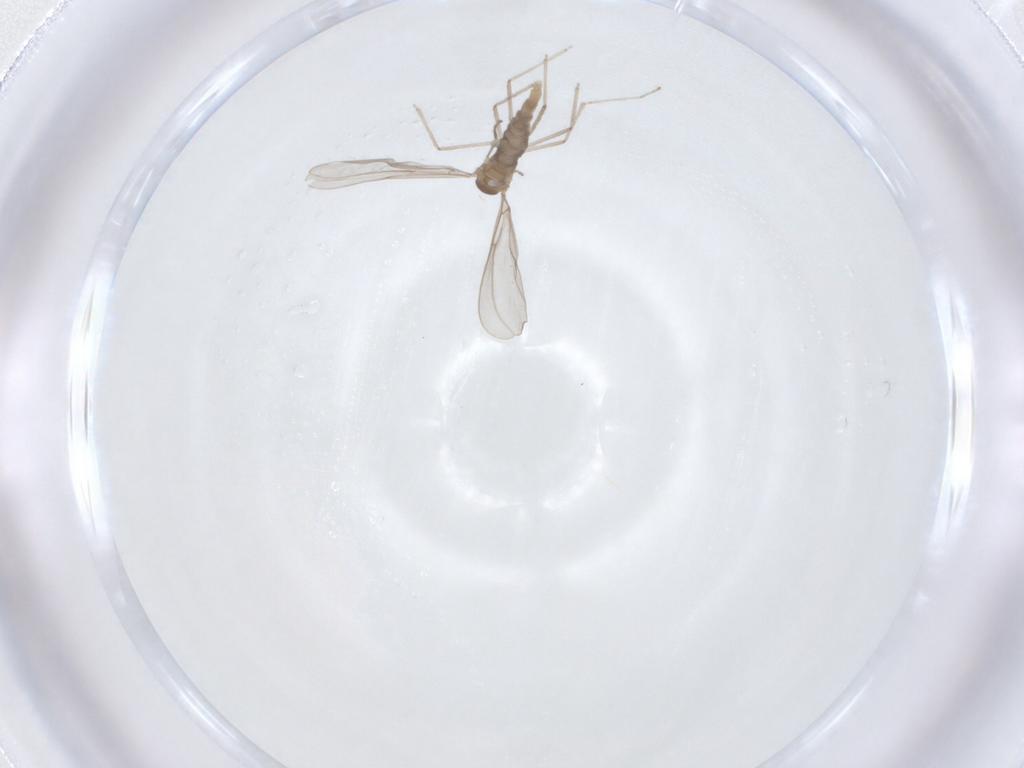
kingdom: Animalia
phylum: Arthropoda
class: Insecta
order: Diptera
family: Cecidomyiidae
